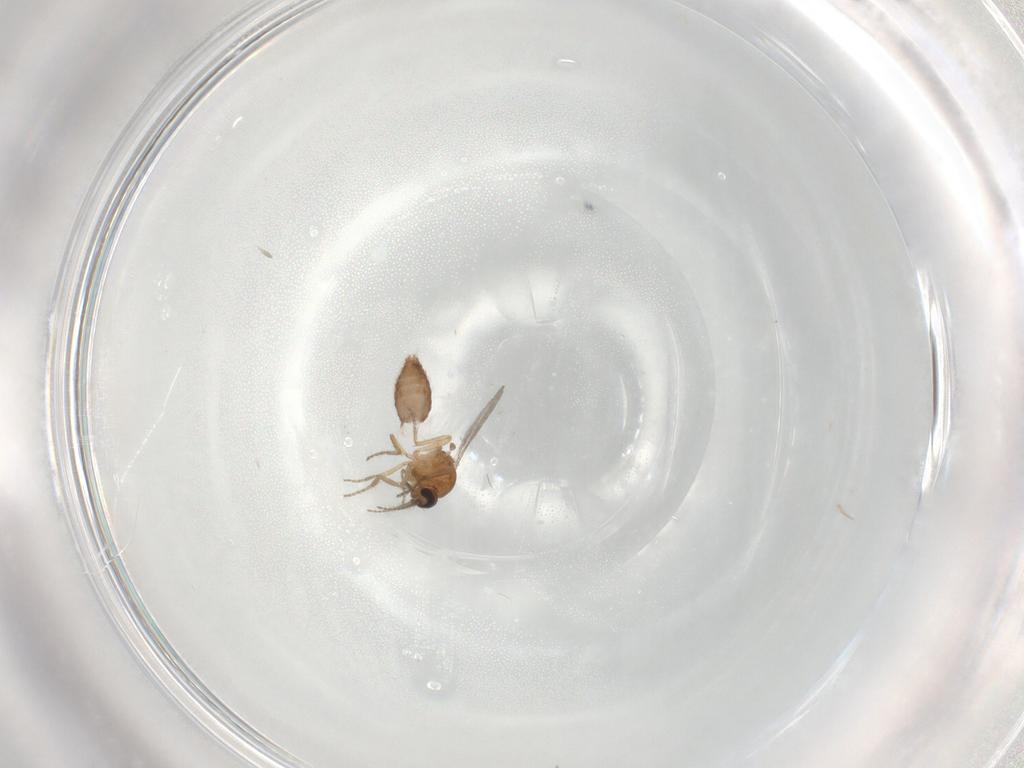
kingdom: Animalia
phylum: Arthropoda
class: Insecta
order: Diptera
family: Ceratopogonidae
